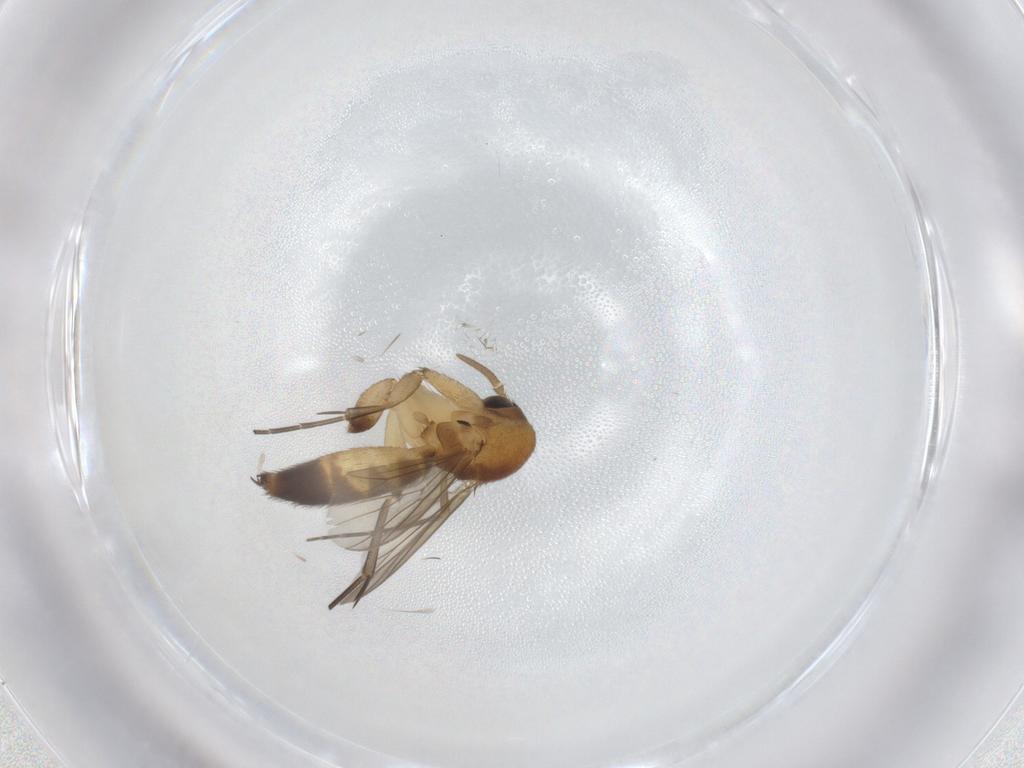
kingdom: Animalia
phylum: Arthropoda
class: Insecta
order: Diptera
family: Mycetophilidae
